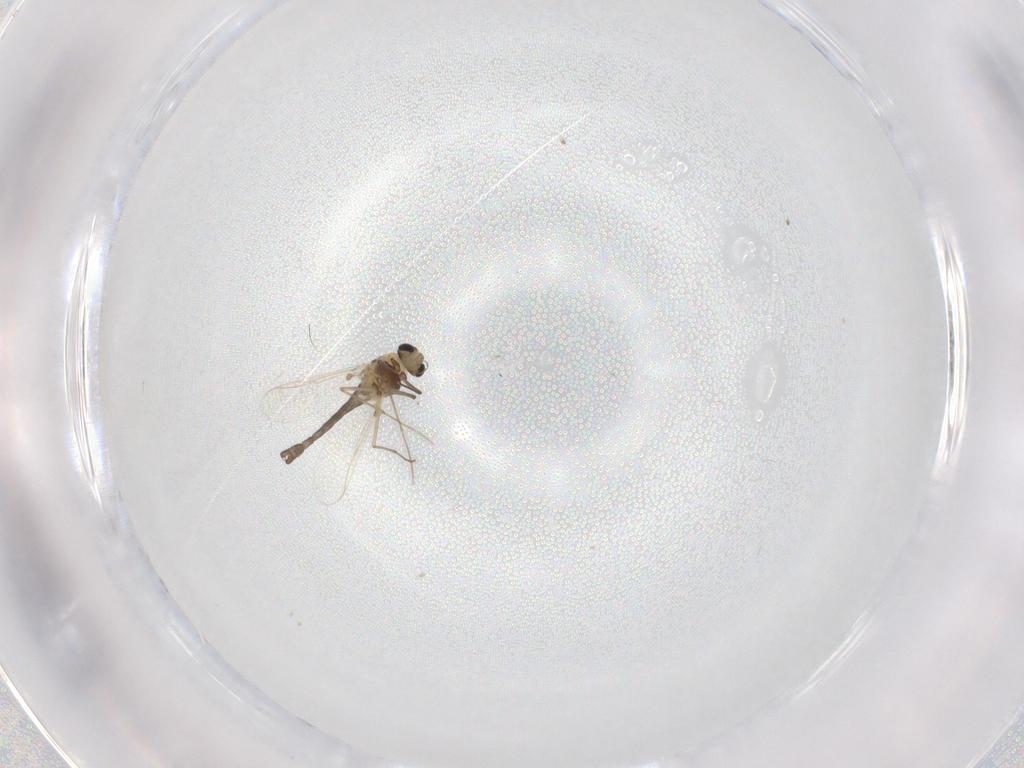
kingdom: Animalia
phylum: Arthropoda
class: Insecta
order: Diptera
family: Chironomidae
